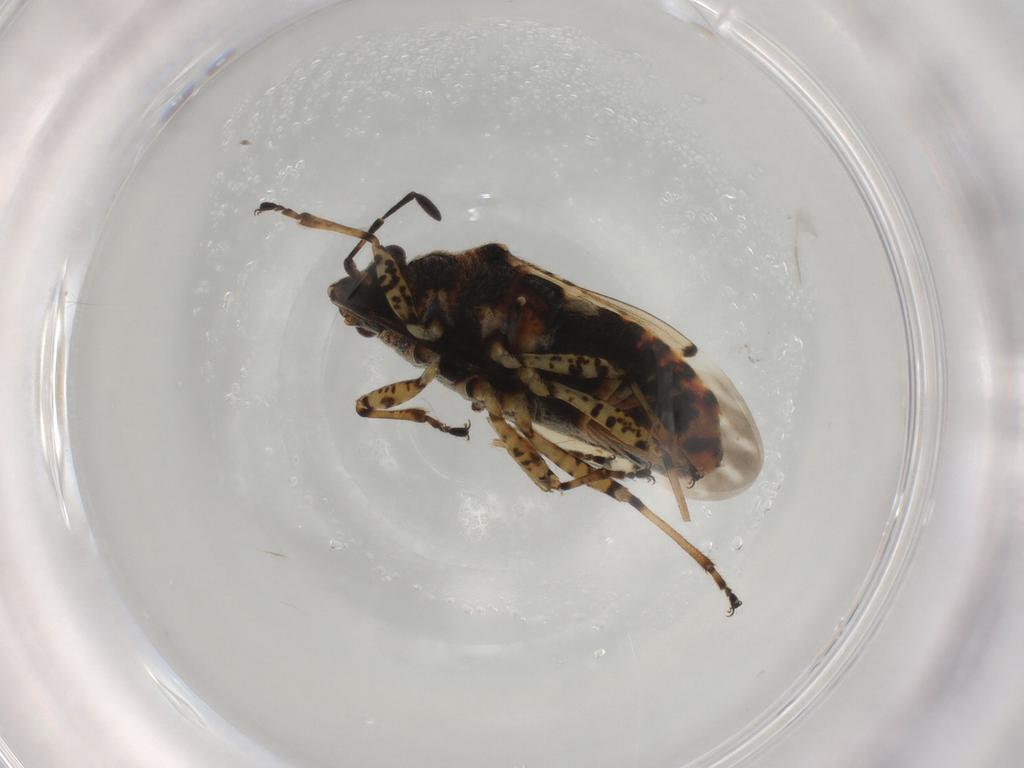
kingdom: Animalia
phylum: Arthropoda
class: Insecta
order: Hemiptera
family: Lygaeidae
